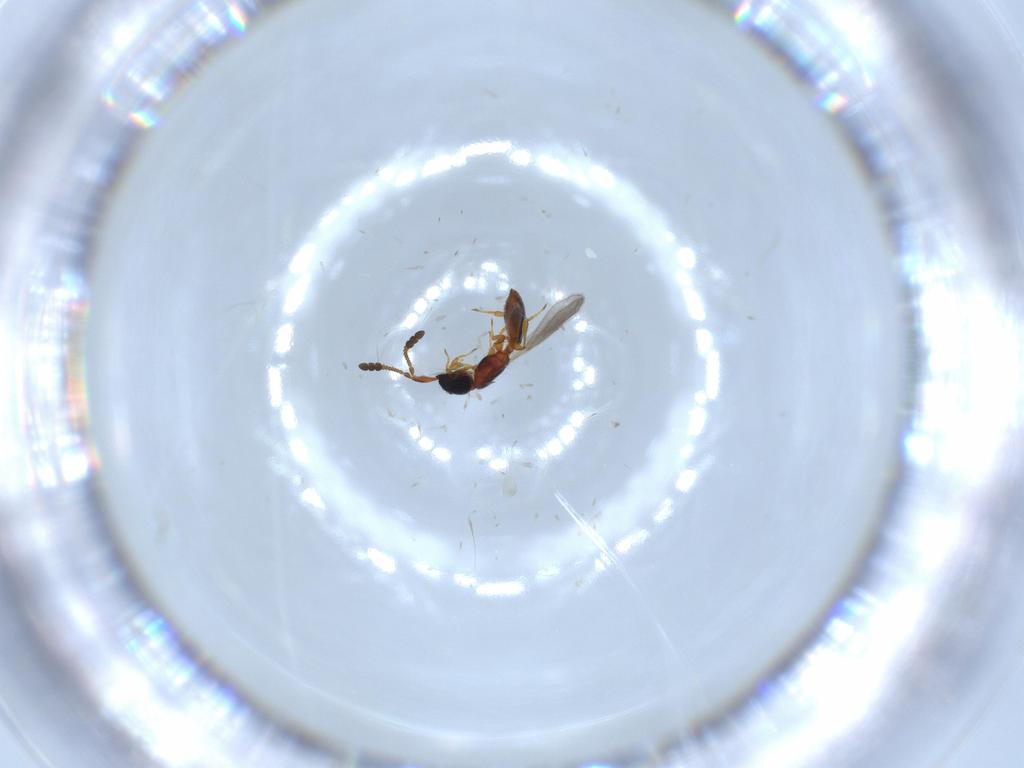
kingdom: Animalia
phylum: Arthropoda
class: Insecta
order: Hymenoptera
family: Diapriidae
